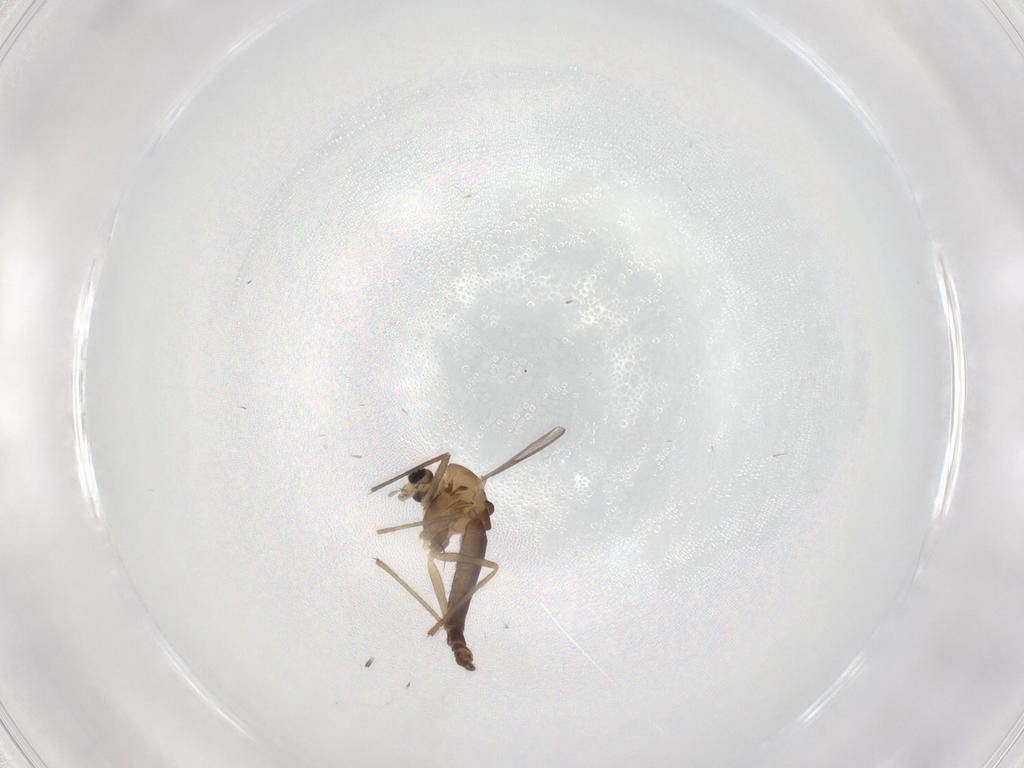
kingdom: Animalia
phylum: Arthropoda
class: Insecta
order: Diptera
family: Chironomidae
